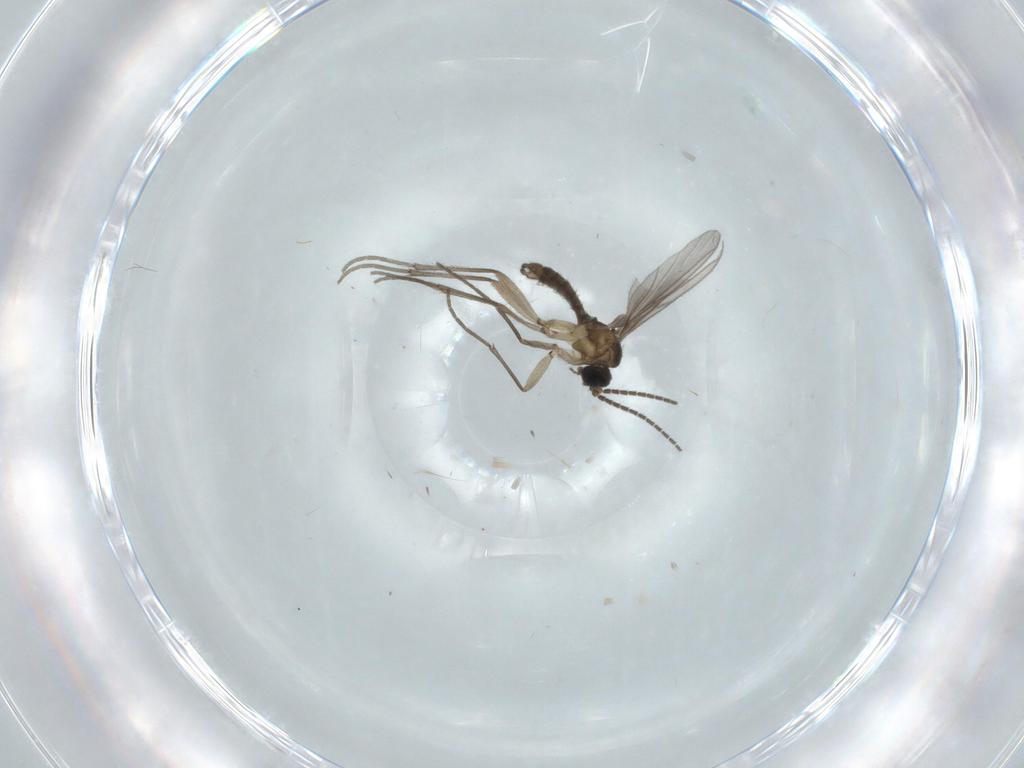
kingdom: Animalia
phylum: Arthropoda
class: Insecta
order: Diptera
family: Sciaridae
